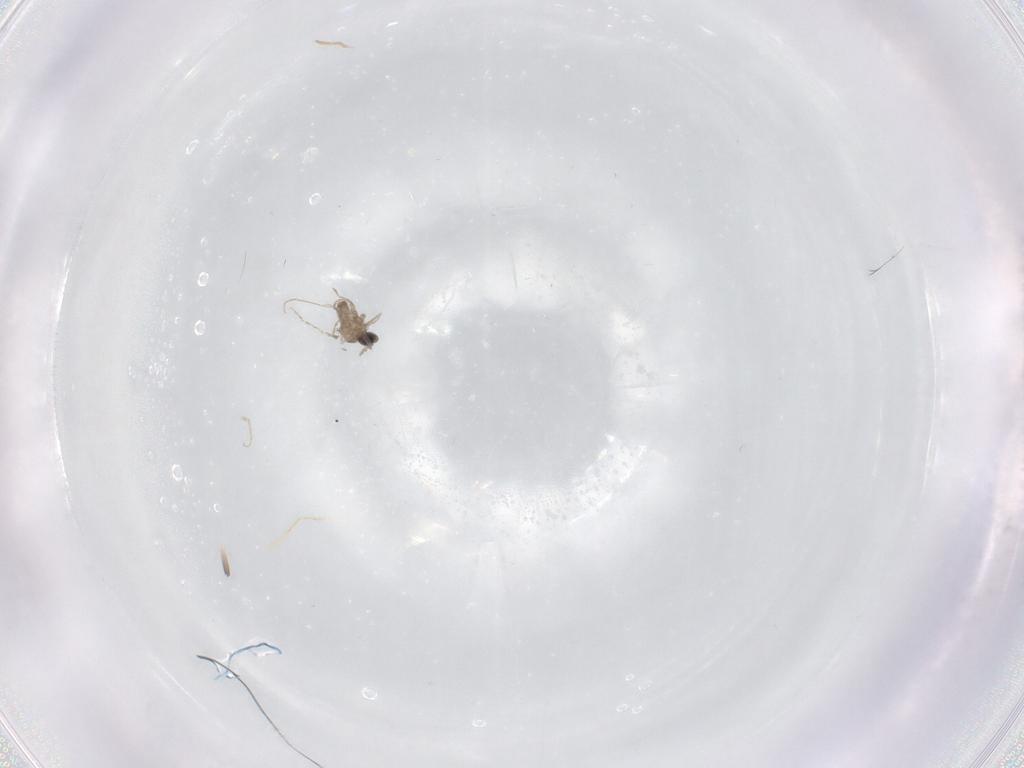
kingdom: Animalia
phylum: Arthropoda
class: Insecta
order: Diptera
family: Cecidomyiidae
